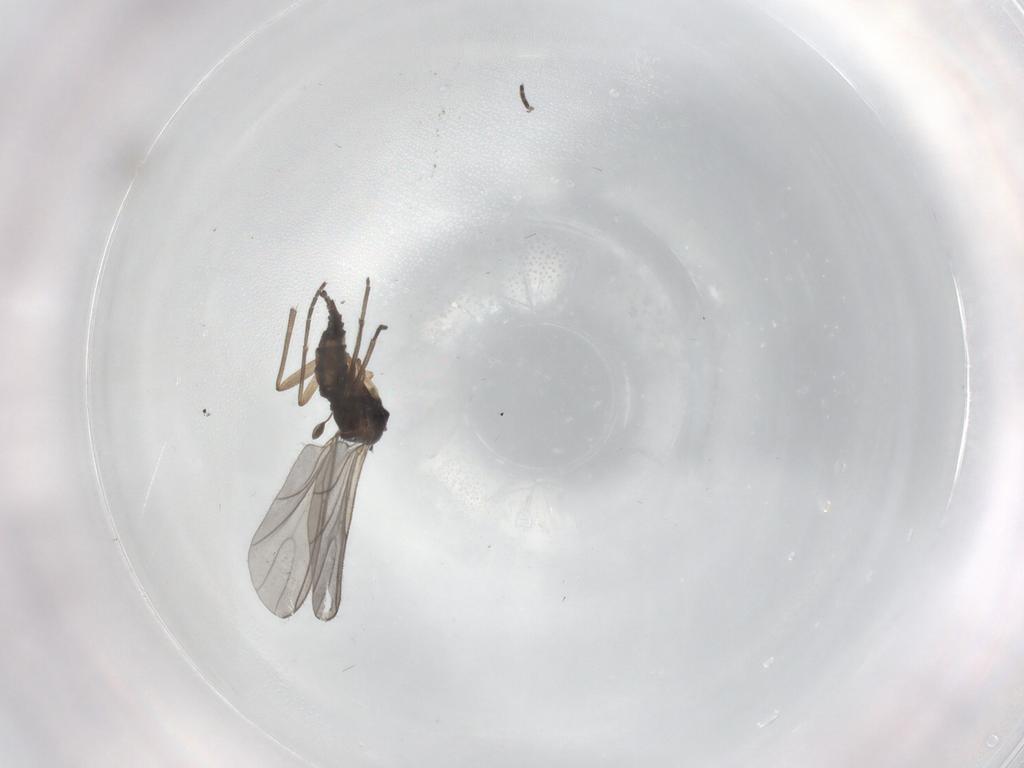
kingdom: Animalia
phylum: Arthropoda
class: Insecta
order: Diptera
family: Sciaridae
